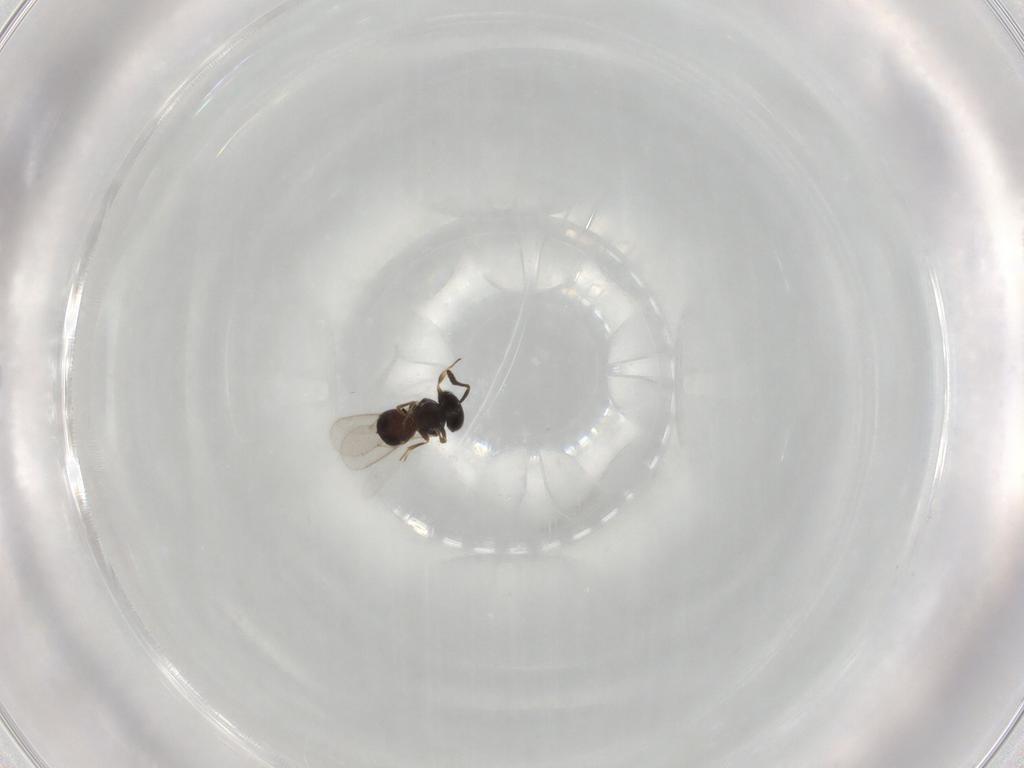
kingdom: Animalia
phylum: Arthropoda
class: Insecta
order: Hymenoptera
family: Scelionidae
